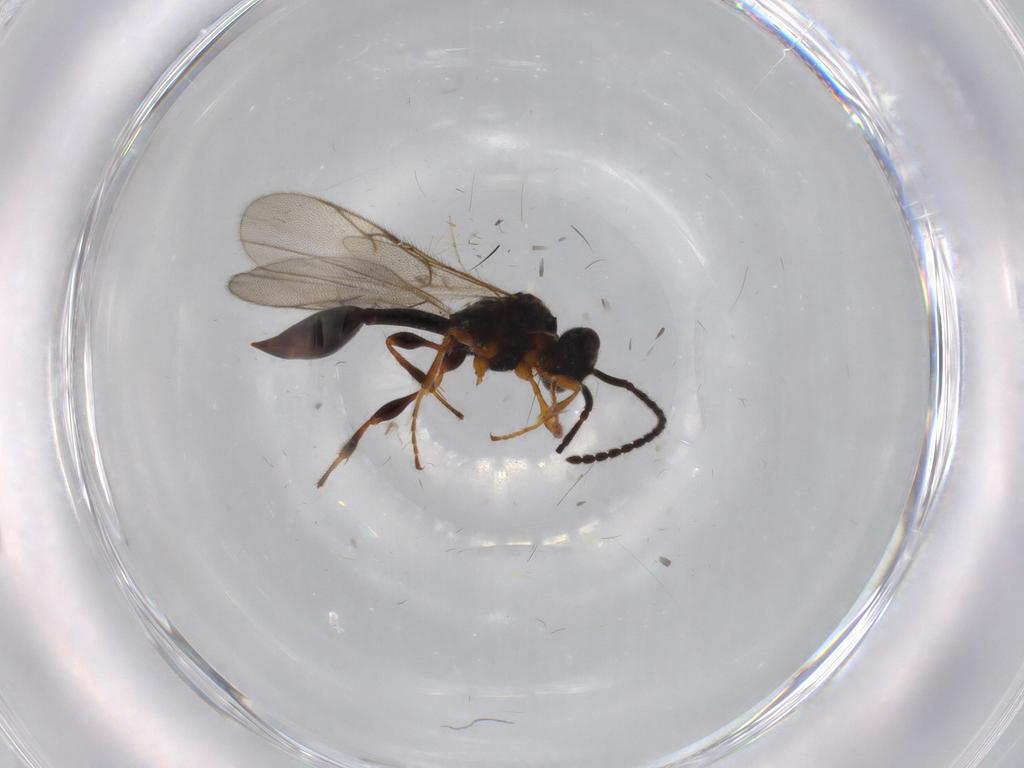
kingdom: Animalia
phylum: Arthropoda
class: Insecta
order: Hymenoptera
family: Diapriidae
